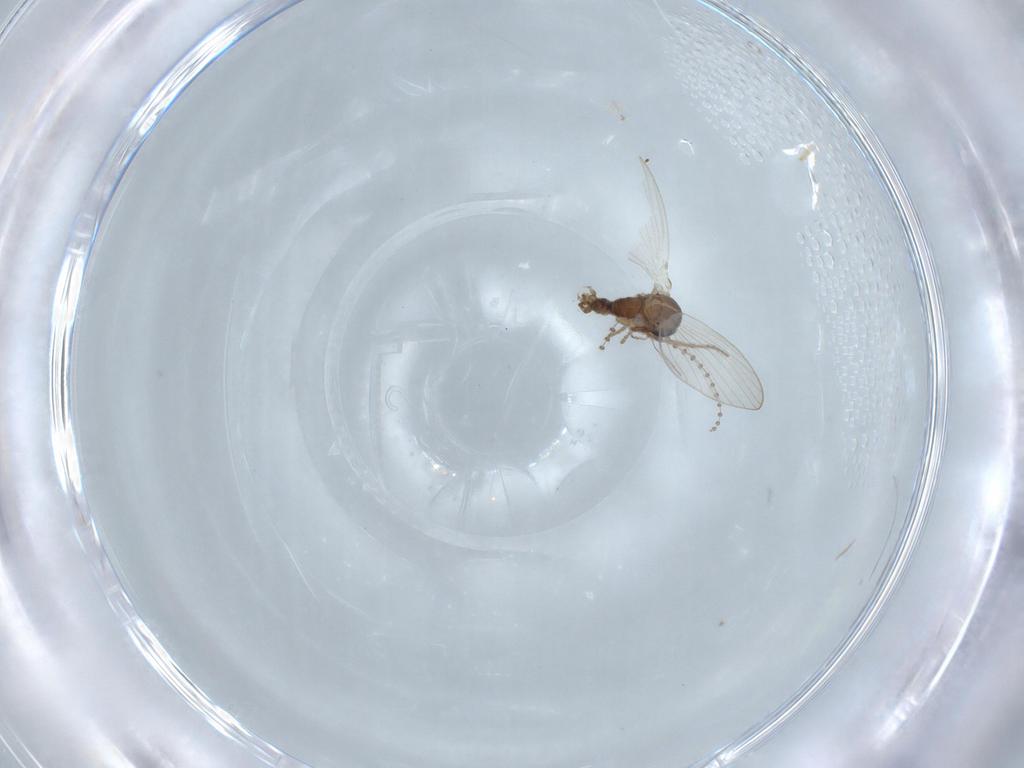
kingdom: Animalia
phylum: Arthropoda
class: Insecta
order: Diptera
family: Psychodidae
